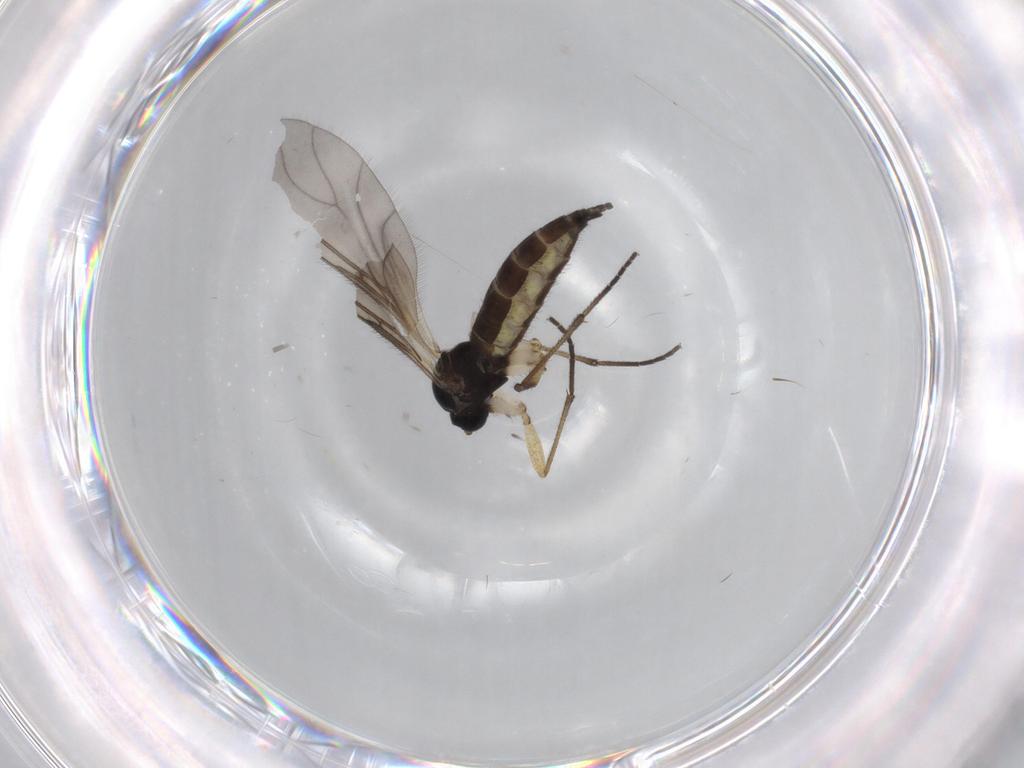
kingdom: Animalia
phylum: Arthropoda
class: Insecta
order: Diptera
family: Sciaridae
